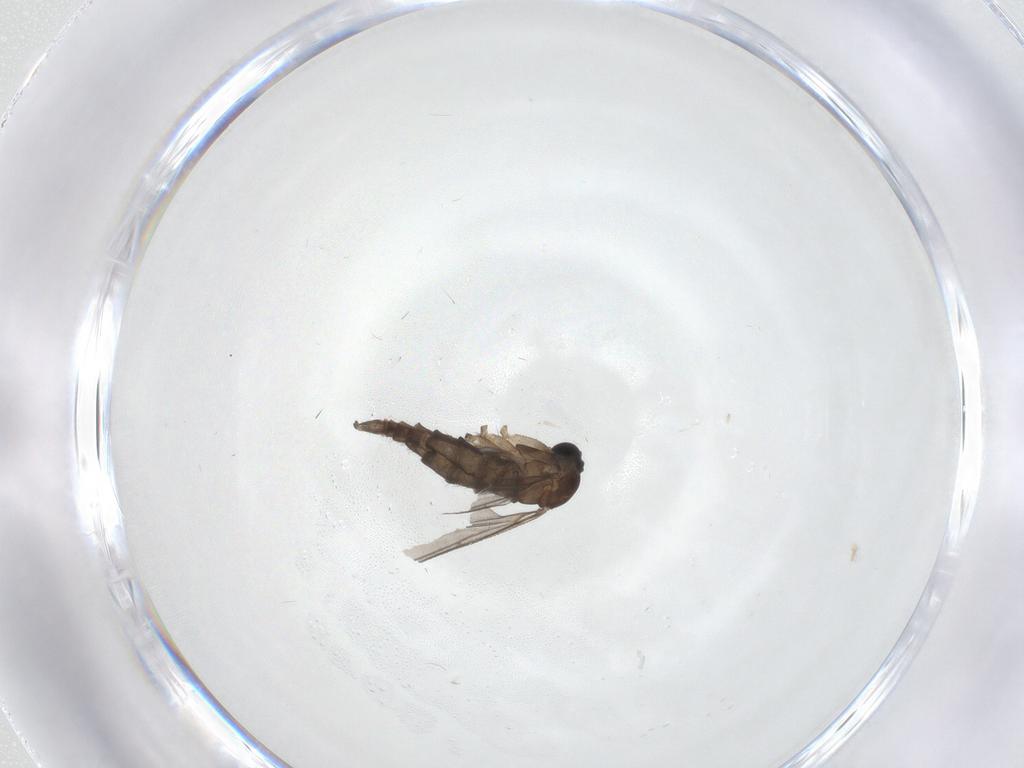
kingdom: Animalia
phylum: Arthropoda
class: Insecta
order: Diptera
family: Sciaridae
